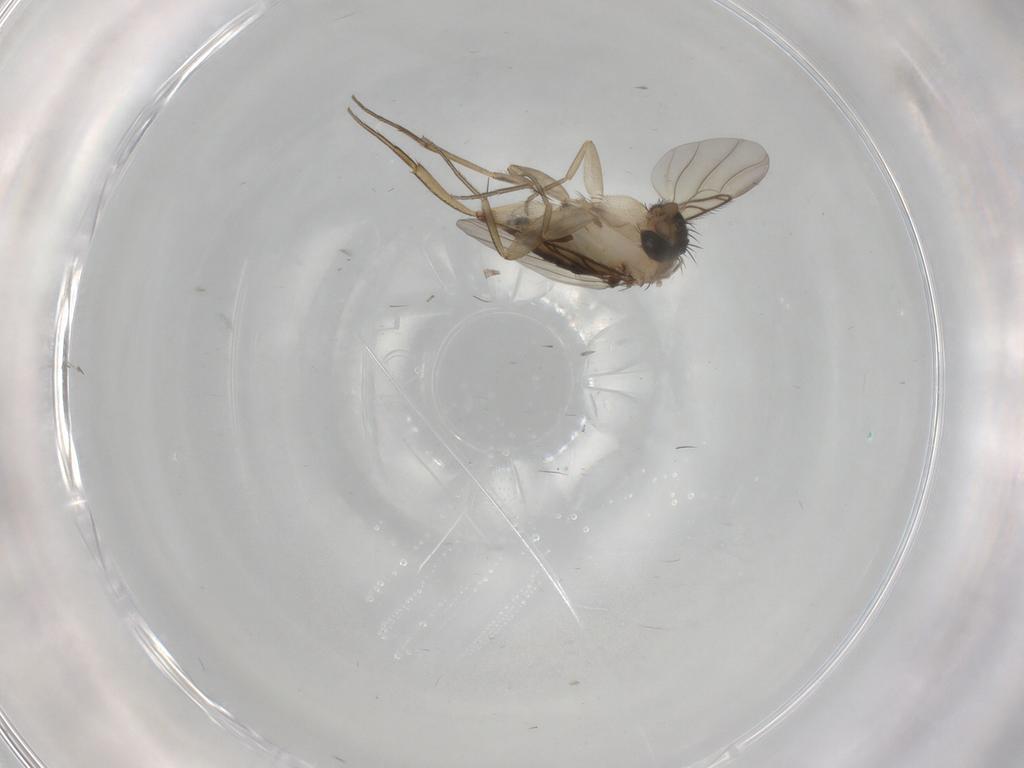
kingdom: Animalia
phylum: Arthropoda
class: Insecta
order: Diptera
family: Phoridae
